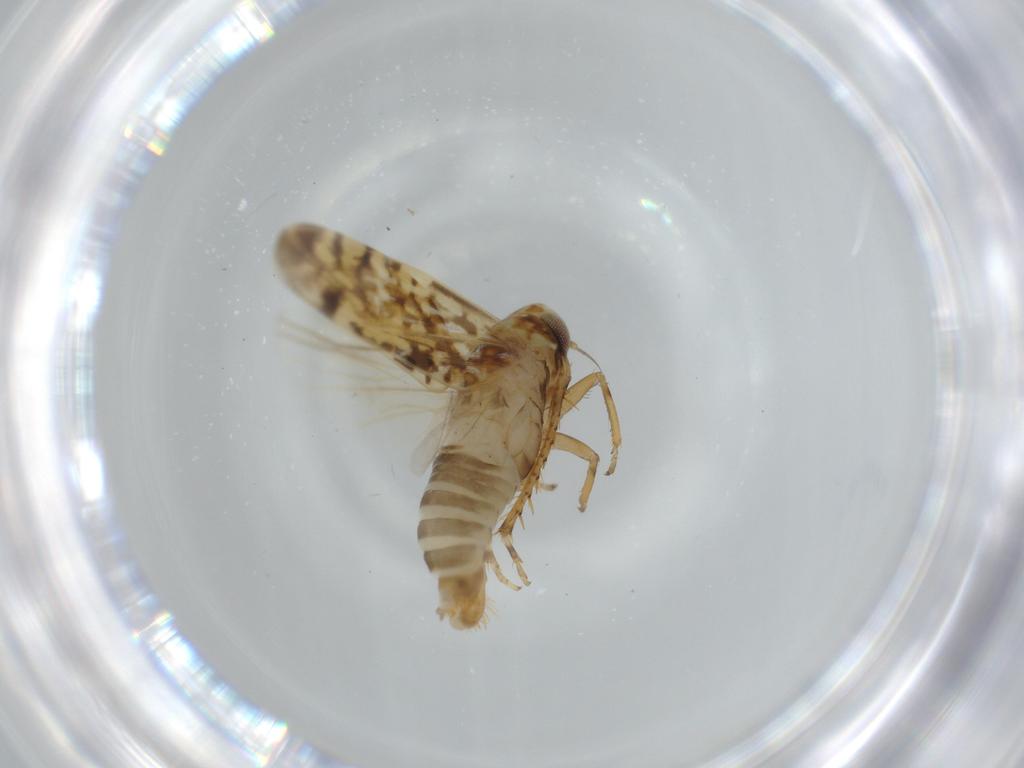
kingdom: Animalia
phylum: Arthropoda
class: Insecta
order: Hemiptera
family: Cicadellidae
